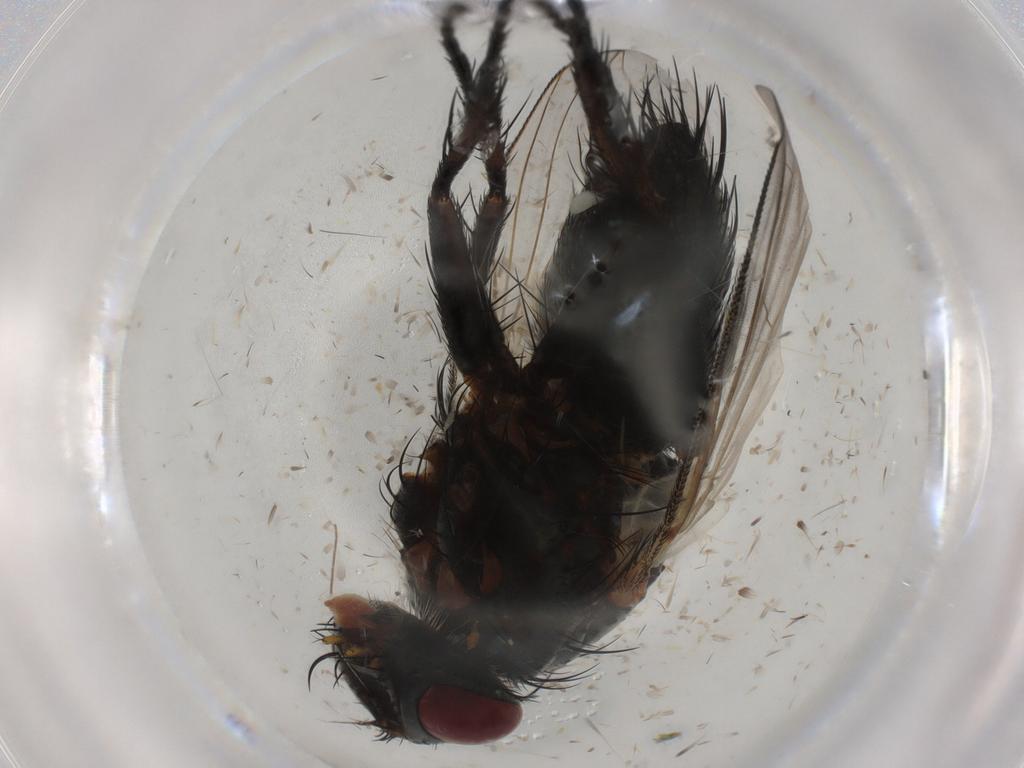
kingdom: Animalia
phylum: Arthropoda
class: Insecta
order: Diptera
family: Tachinidae
